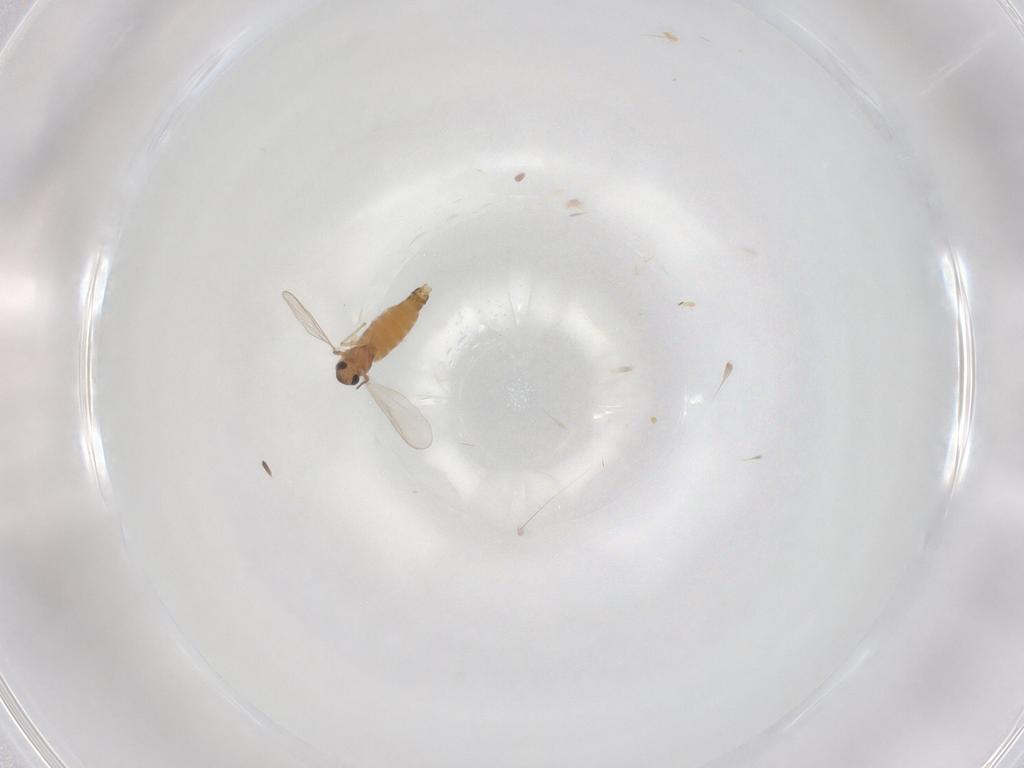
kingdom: Animalia
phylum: Arthropoda
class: Insecta
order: Diptera
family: Chironomidae
